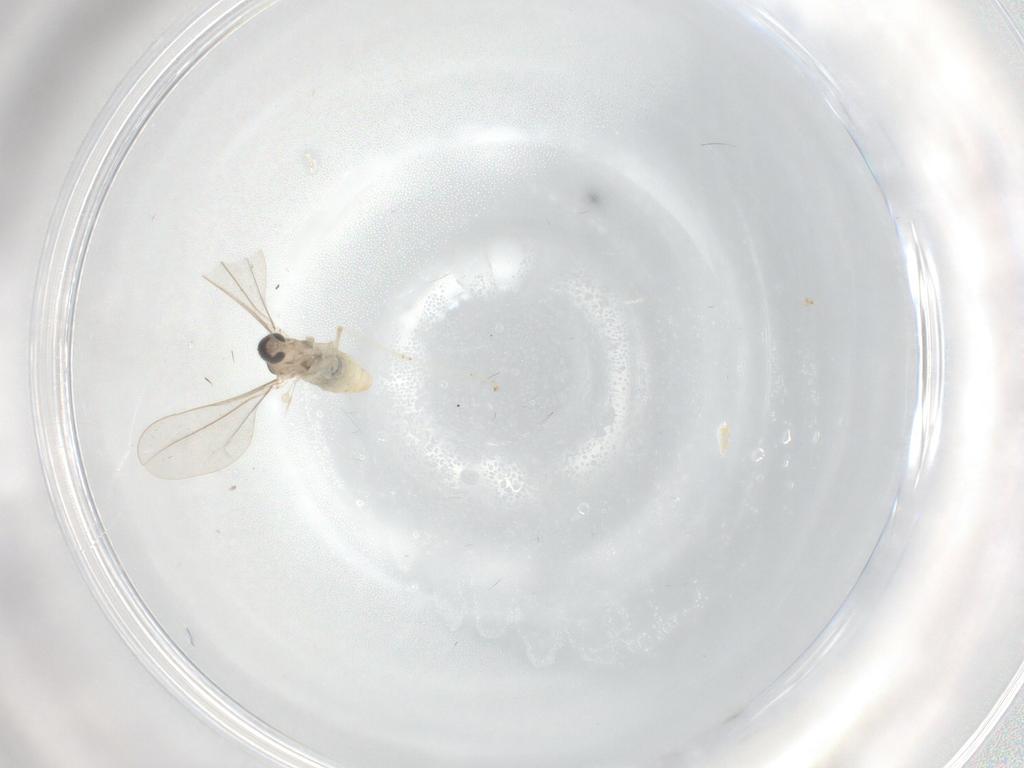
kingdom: Animalia
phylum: Arthropoda
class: Insecta
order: Diptera
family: Cecidomyiidae
